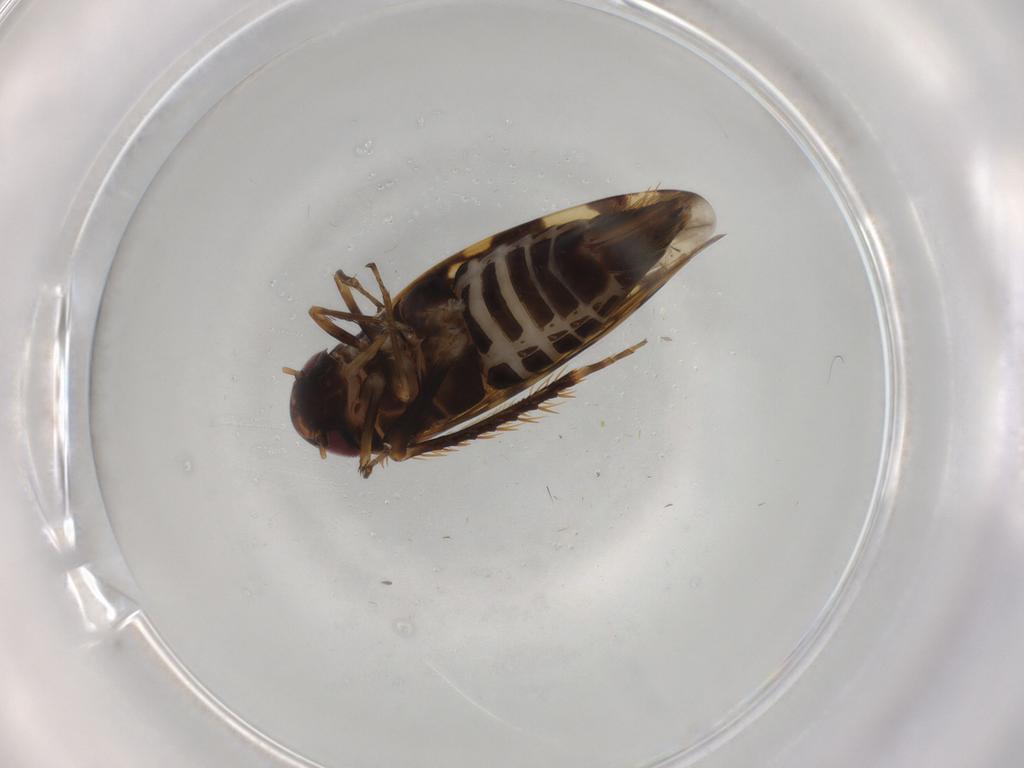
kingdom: Animalia
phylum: Arthropoda
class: Insecta
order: Hemiptera
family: Cicadellidae
